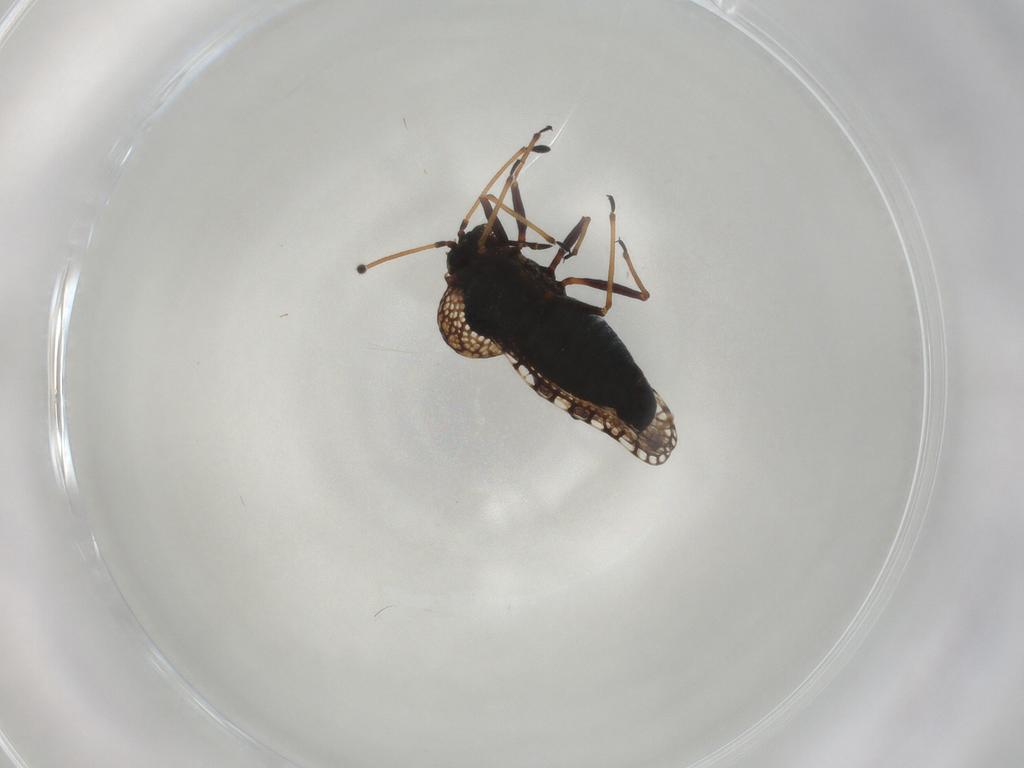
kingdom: Animalia
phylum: Arthropoda
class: Insecta
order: Hemiptera
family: Tingidae
